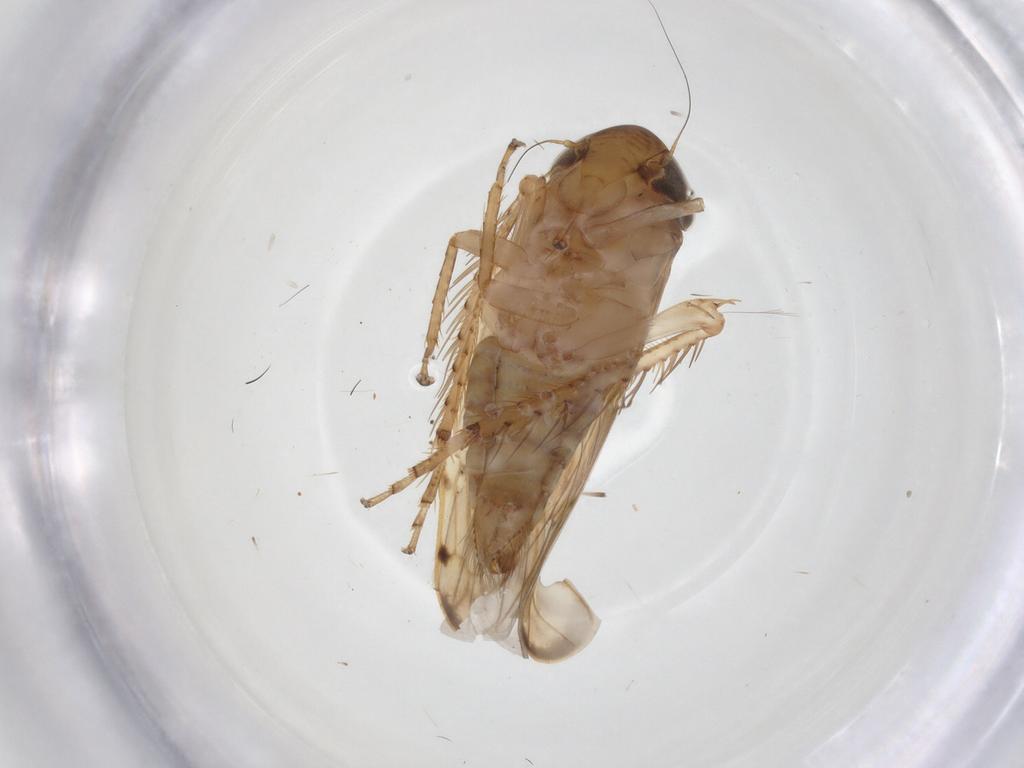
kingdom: Animalia
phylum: Arthropoda
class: Insecta
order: Hemiptera
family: Cicadellidae
